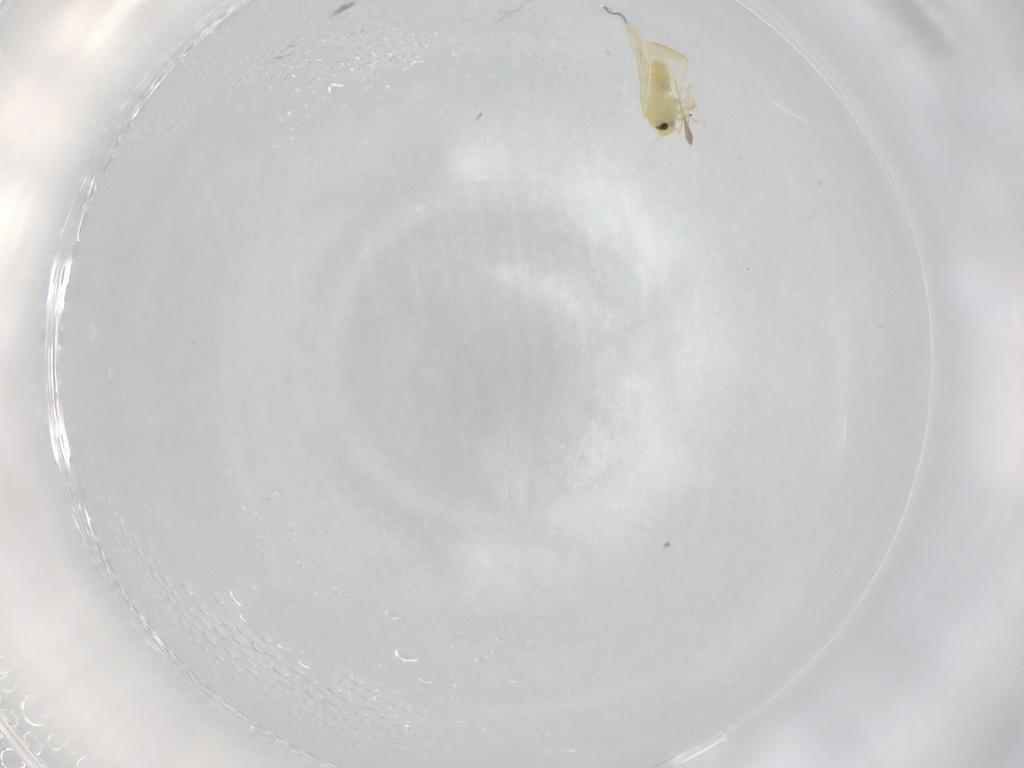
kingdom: Animalia
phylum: Arthropoda
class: Insecta
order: Hemiptera
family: Aleyrodidae
